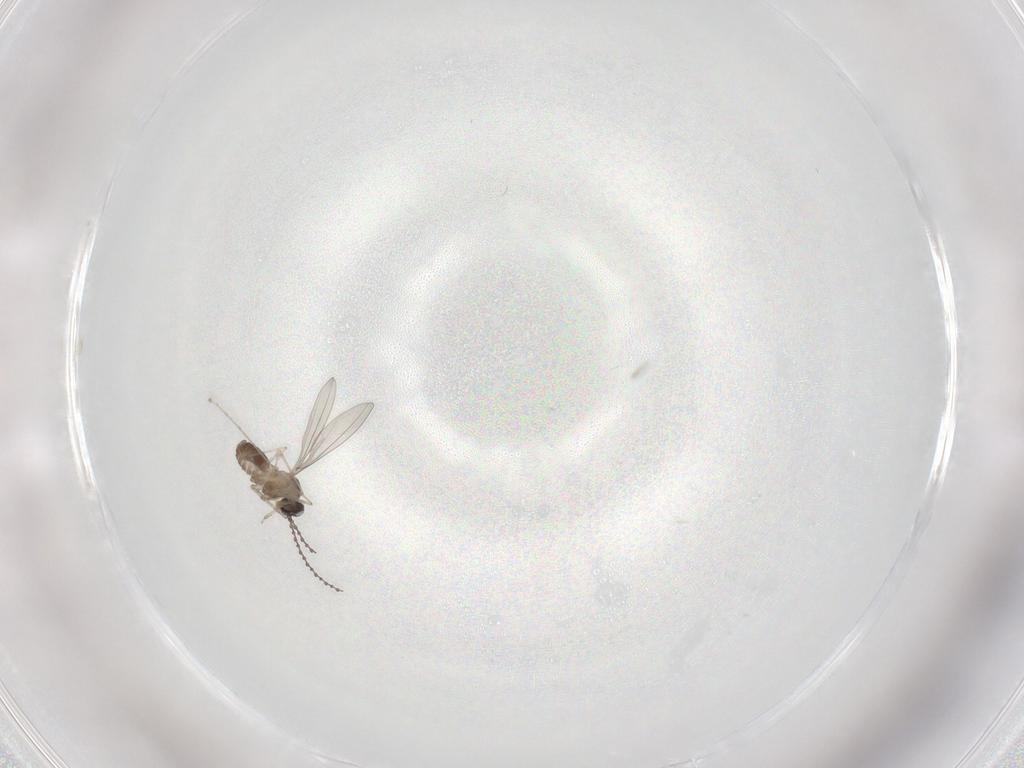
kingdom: Animalia
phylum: Arthropoda
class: Insecta
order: Diptera
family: Cecidomyiidae
